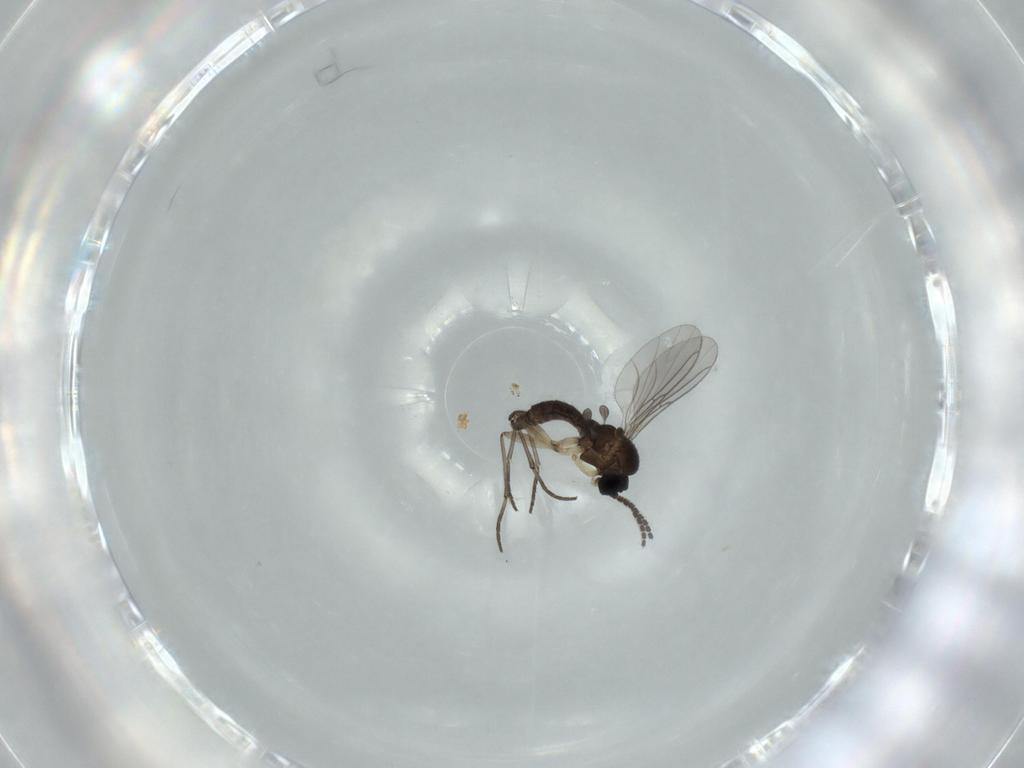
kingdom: Animalia
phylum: Arthropoda
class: Insecta
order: Diptera
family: Sciaridae
